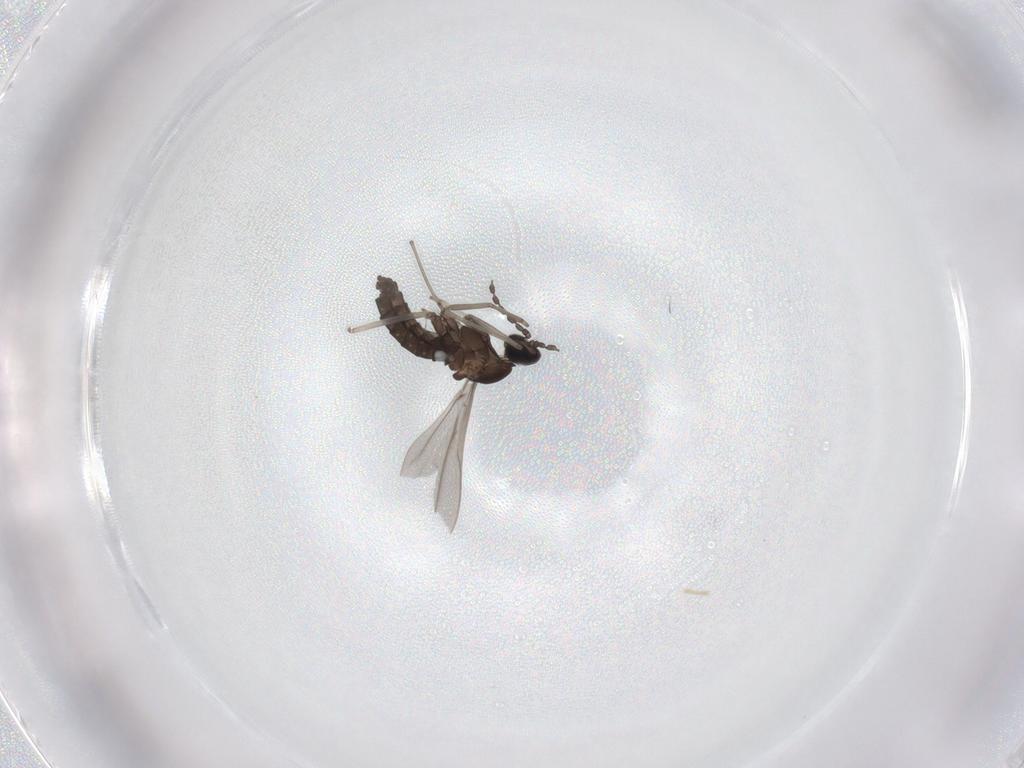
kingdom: Animalia
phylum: Arthropoda
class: Insecta
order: Diptera
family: Cecidomyiidae
